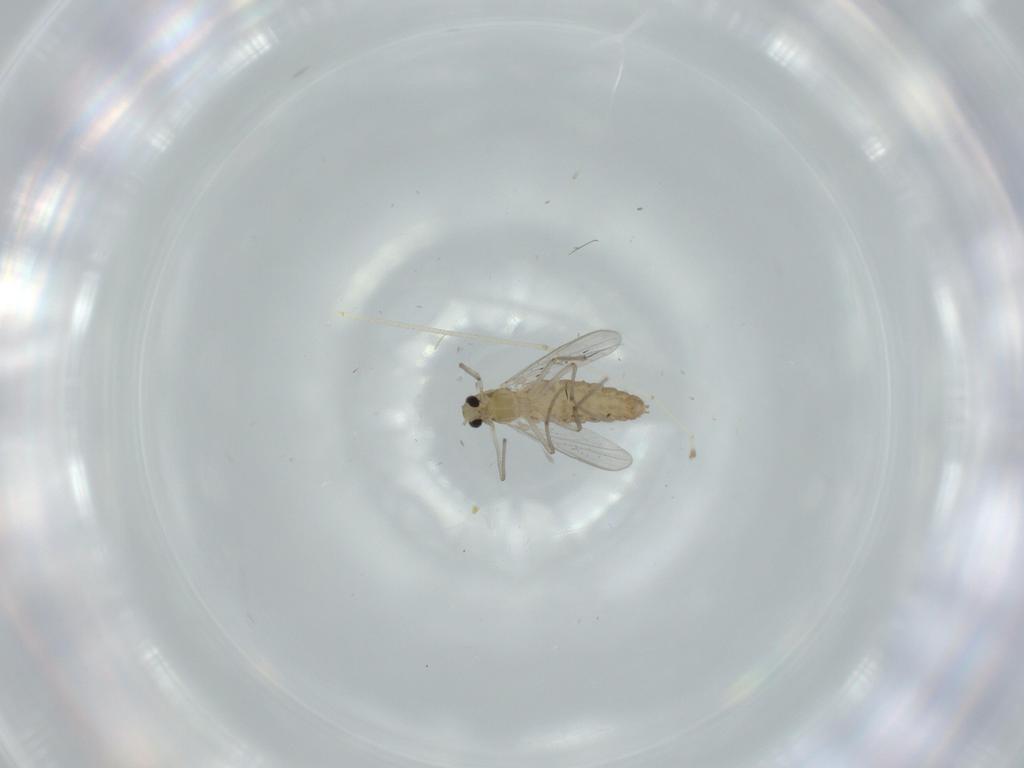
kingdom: Animalia
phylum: Arthropoda
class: Insecta
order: Diptera
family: Chironomidae
